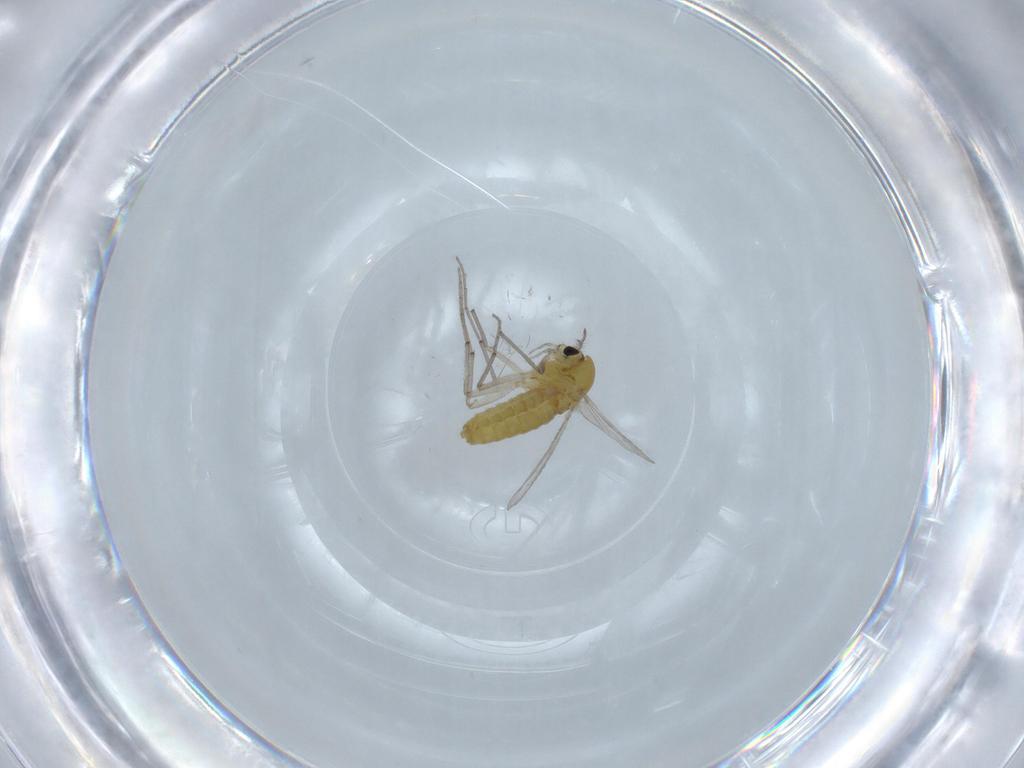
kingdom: Animalia
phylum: Arthropoda
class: Insecta
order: Diptera
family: Chironomidae
